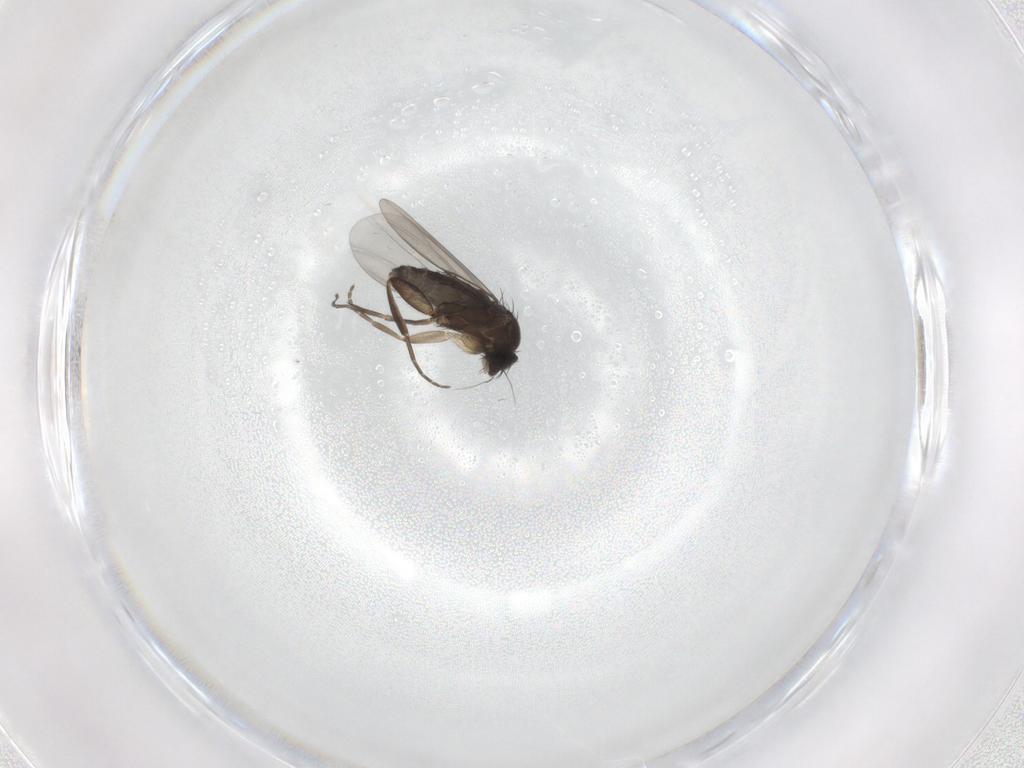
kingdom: Animalia
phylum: Arthropoda
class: Insecta
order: Diptera
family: Phoridae
